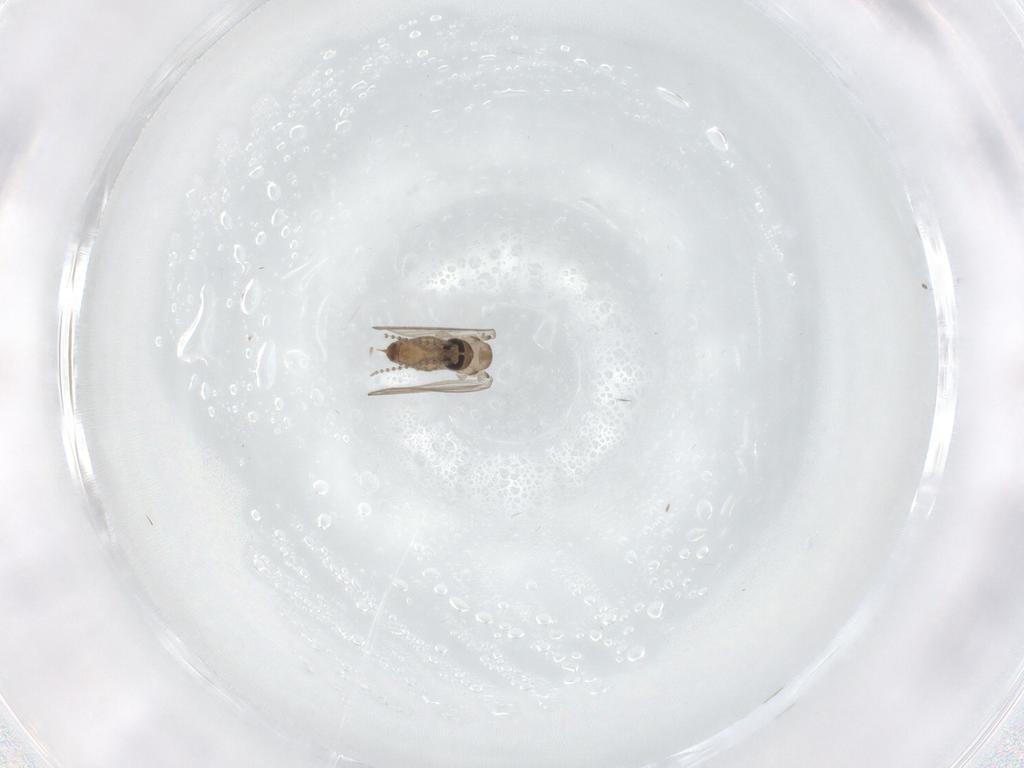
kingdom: Animalia
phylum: Arthropoda
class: Insecta
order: Diptera
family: Psychodidae
